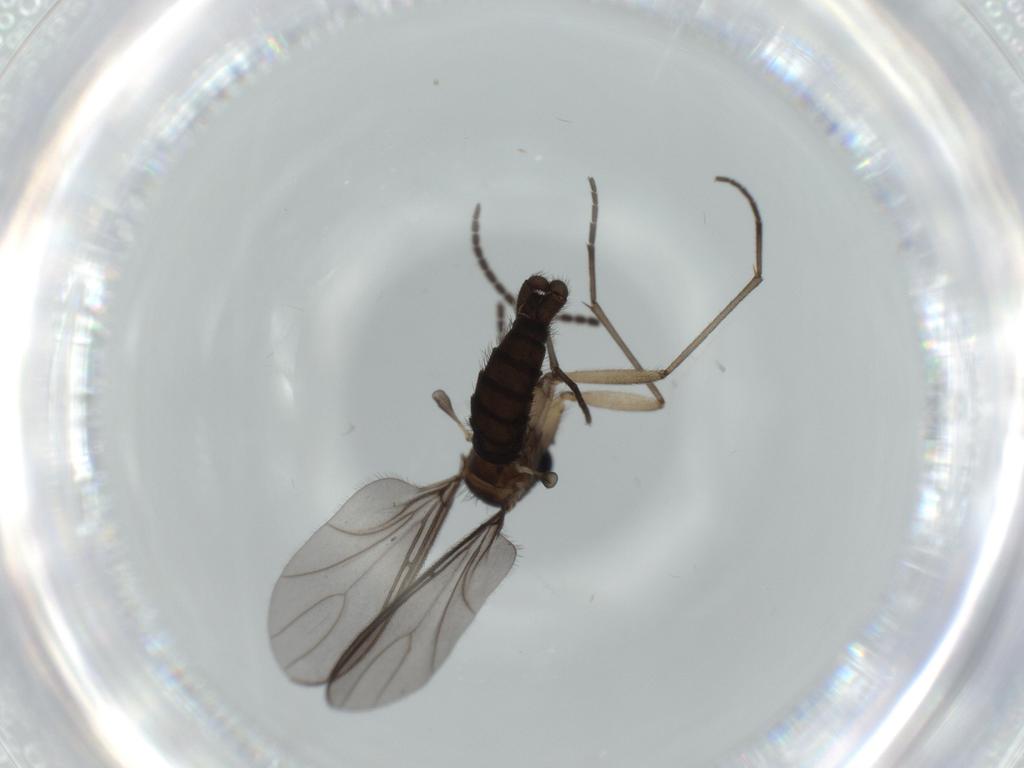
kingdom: Animalia
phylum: Arthropoda
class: Insecta
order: Diptera
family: Sciaridae
